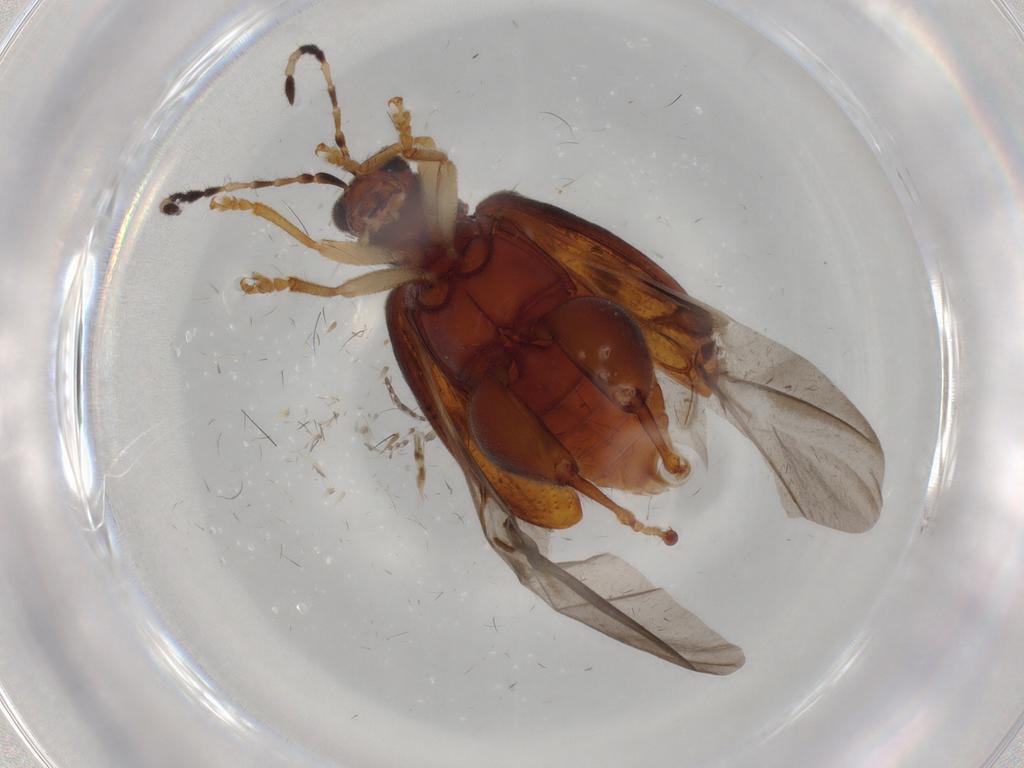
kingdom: Animalia
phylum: Arthropoda
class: Insecta
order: Coleoptera
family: Chrysomelidae
